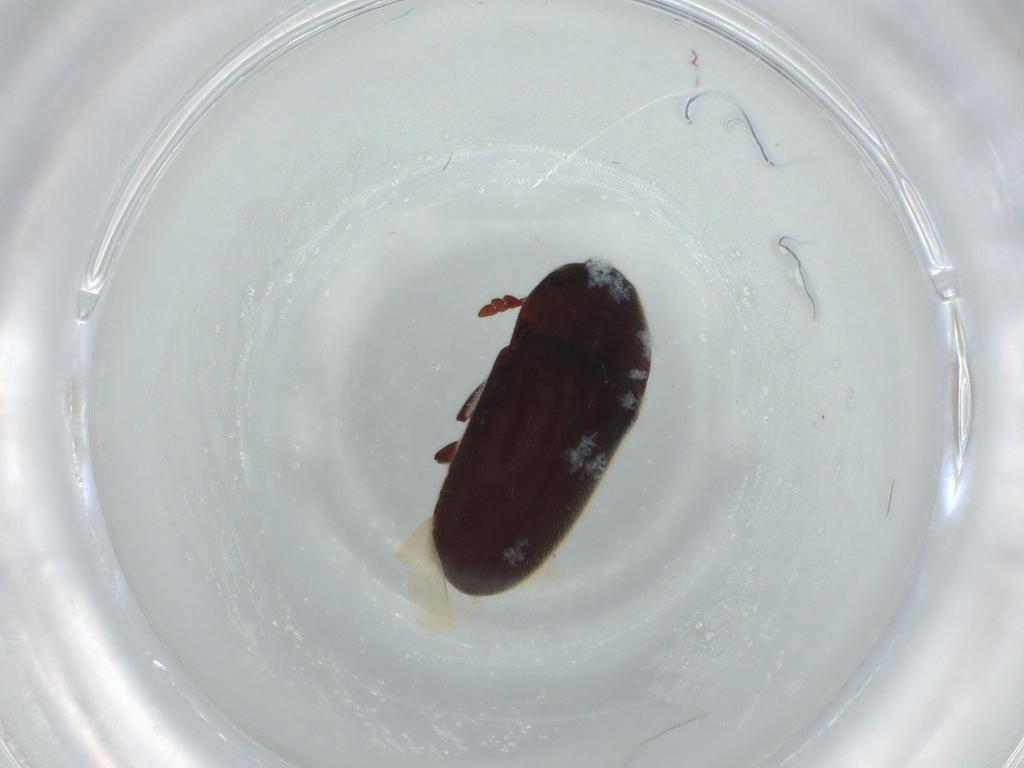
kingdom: Animalia
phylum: Arthropoda
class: Insecta
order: Coleoptera
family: Throscidae
